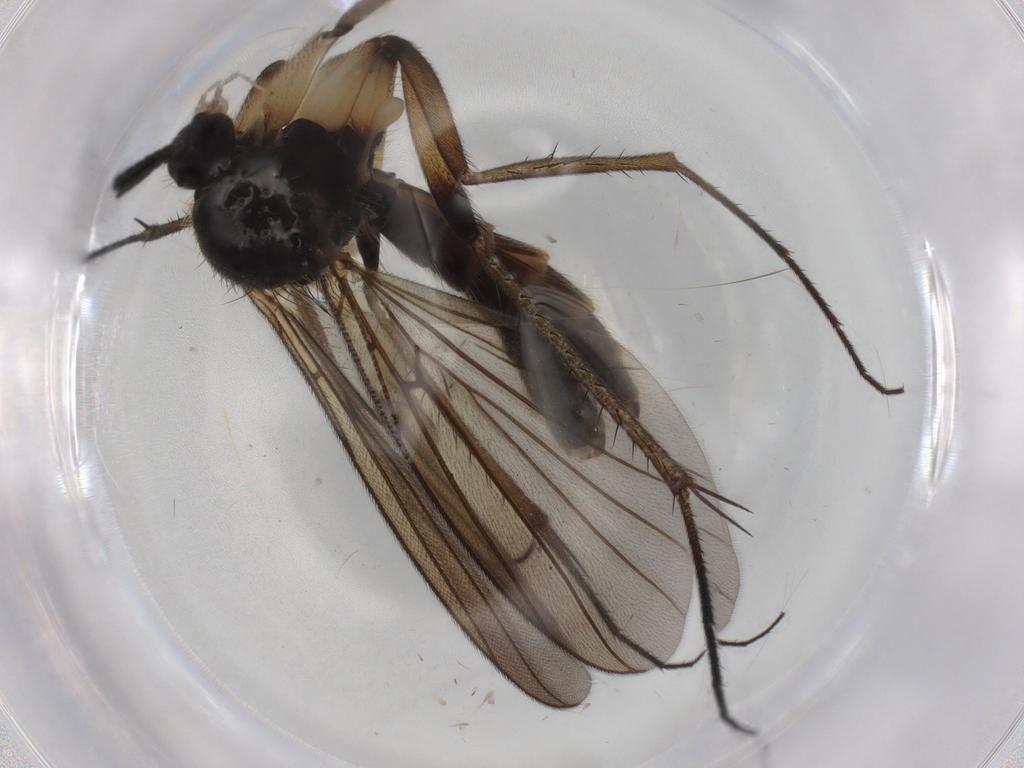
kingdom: Animalia
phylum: Arthropoda
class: Insecta
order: Diptera
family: Mycetophilidae
